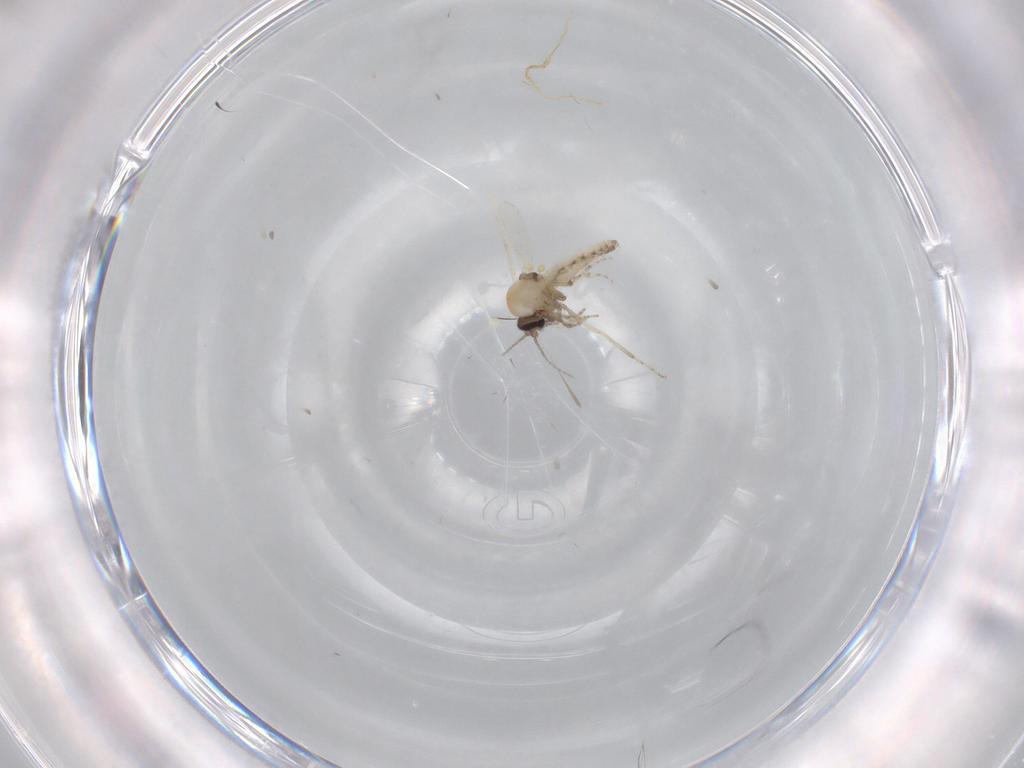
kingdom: Animalia
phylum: Arthropoda
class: Insecta
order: Diptera
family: Ceratopogonidae
